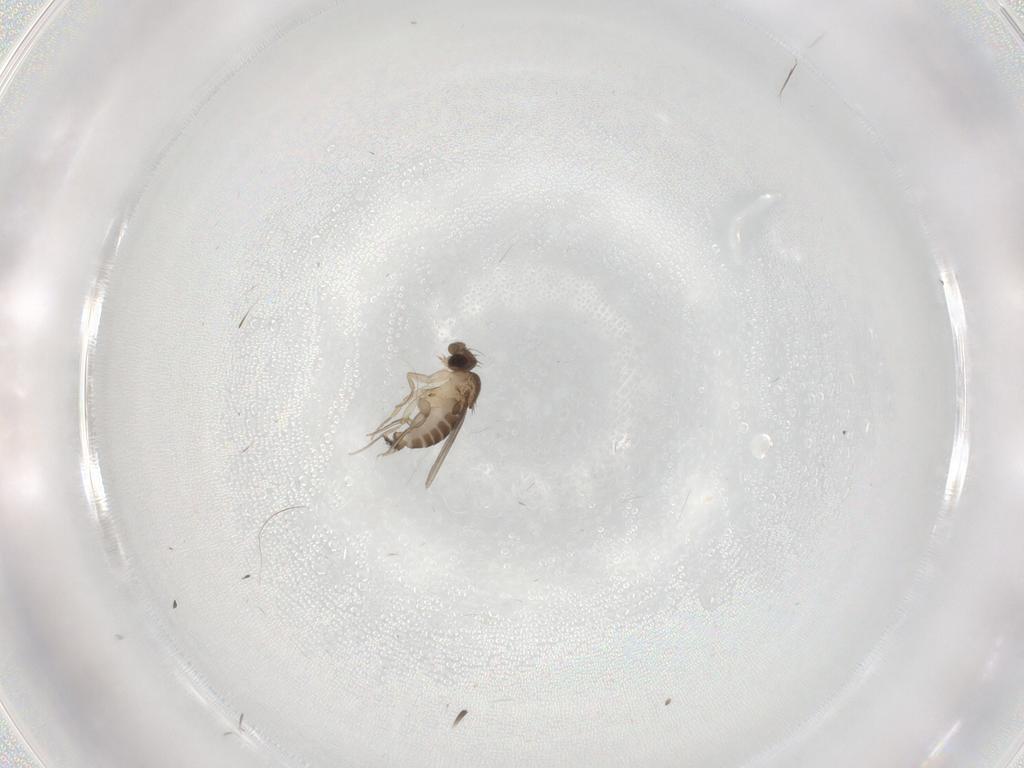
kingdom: Animalia
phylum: Arthropoda
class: Insecta
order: Diptera
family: Phoridae
